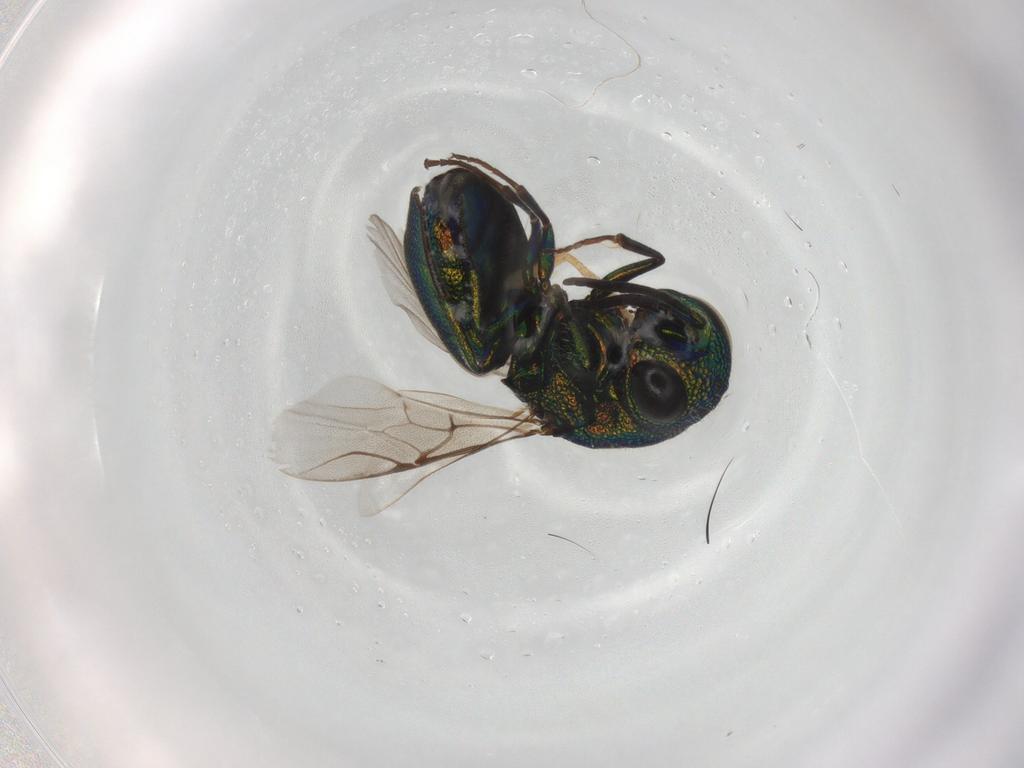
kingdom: Animalia
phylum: Arthropoda
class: Insecta
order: Hymenoptera
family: Chrysididae
